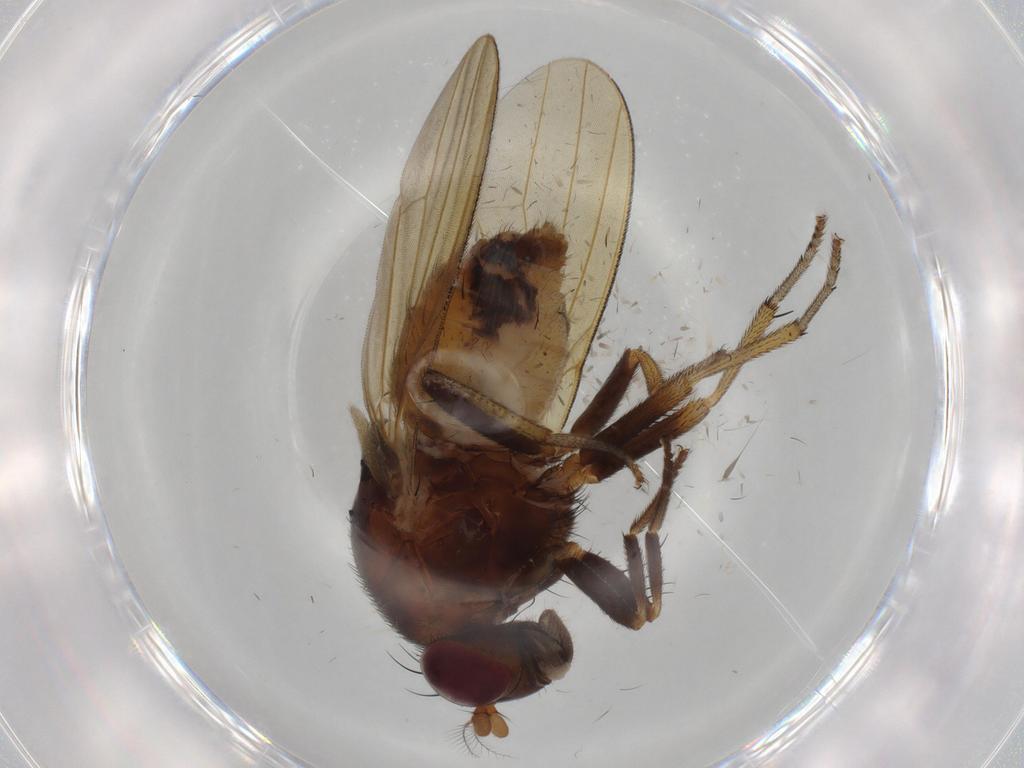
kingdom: Animalia
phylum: Arthropoda
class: Insecta
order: Diptera
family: Lauxaniidae
